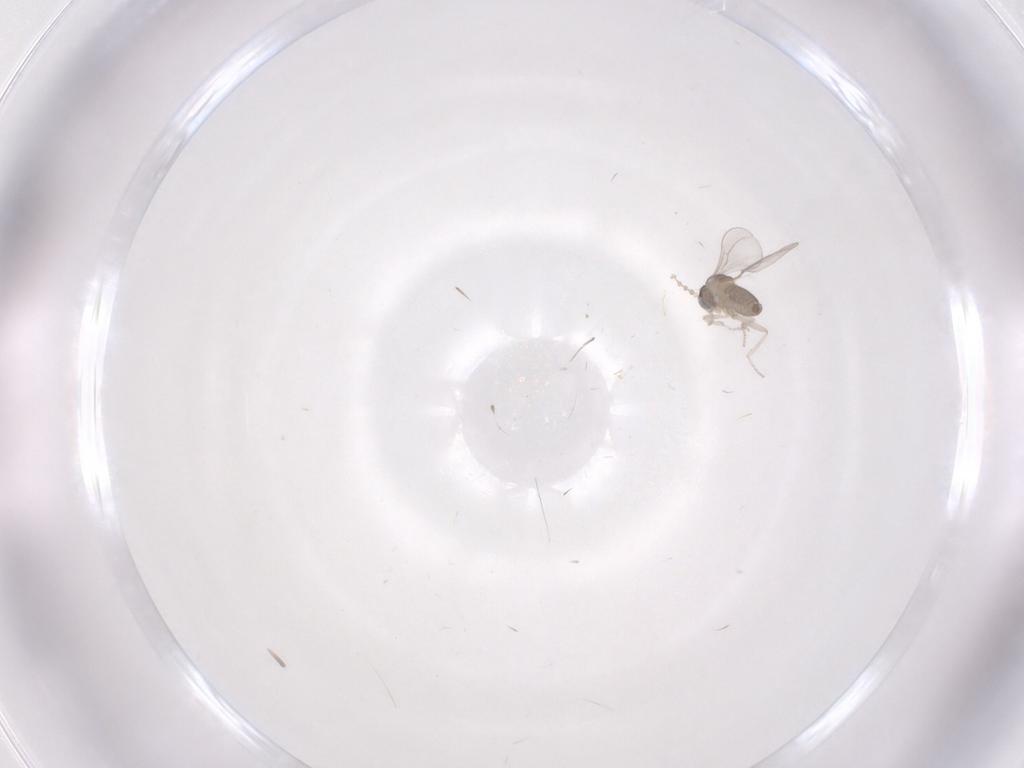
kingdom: Animalia
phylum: Arthropoda
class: Insecta
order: Diptera
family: Cecidomyiidae
